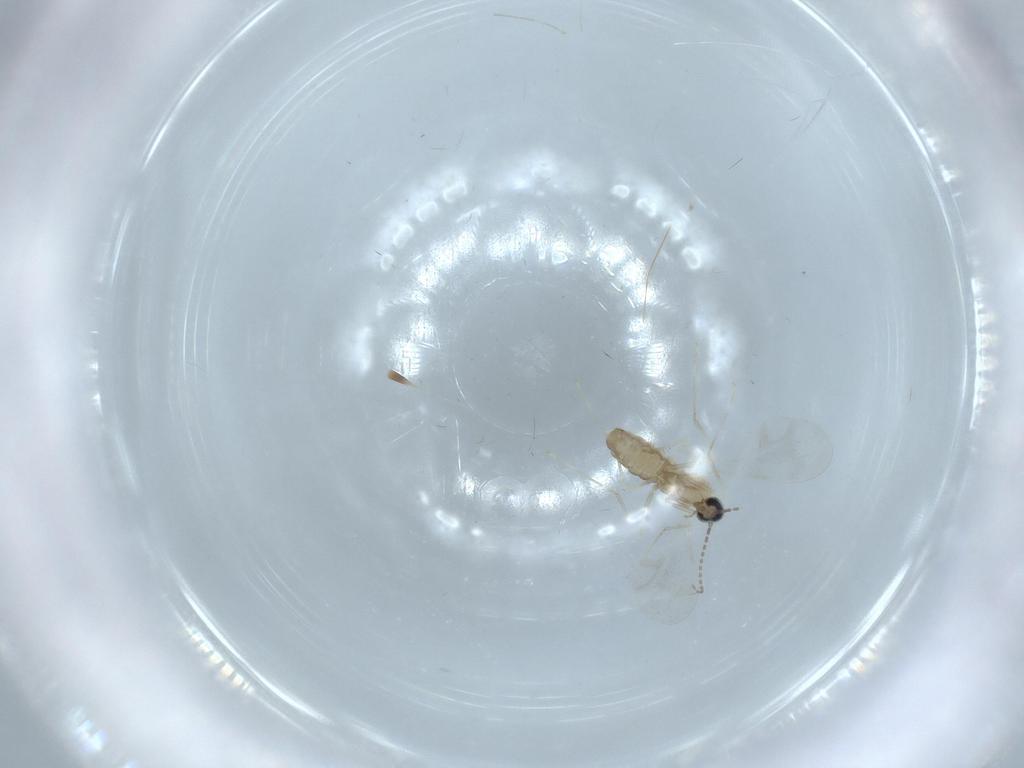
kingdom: Animalia
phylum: Arthropoda
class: Insecta
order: Diptera
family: Cecidomyiidae
